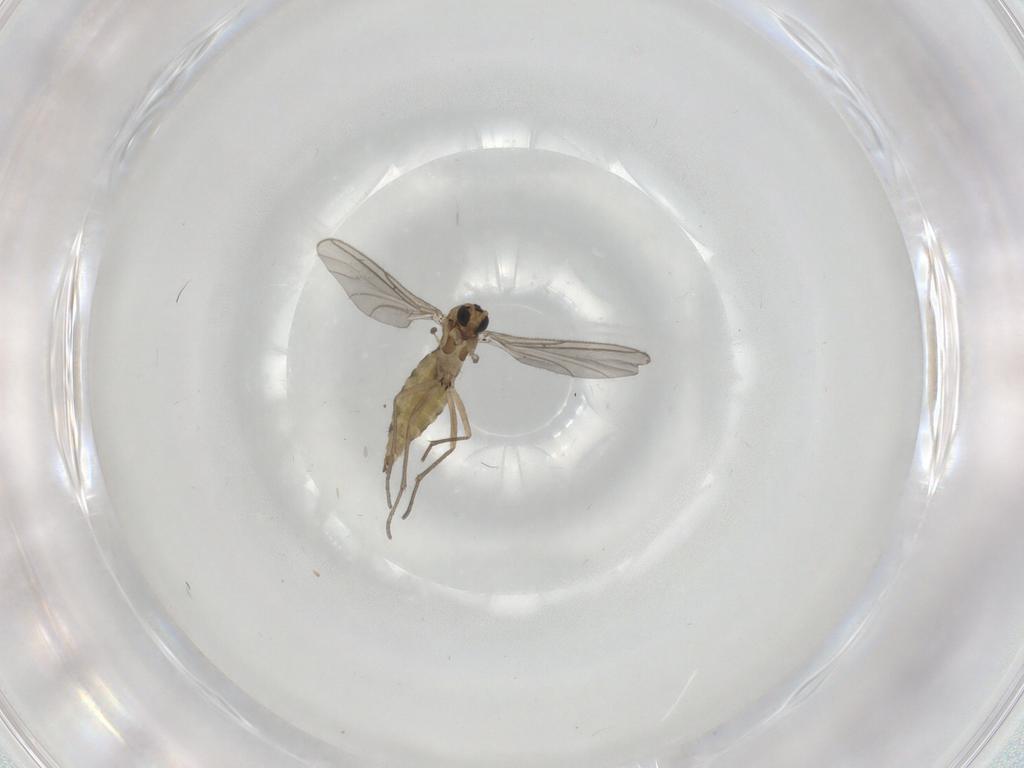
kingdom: Animalia
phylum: Arthropoda
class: Insecta
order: Diptera
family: Sciaridae
